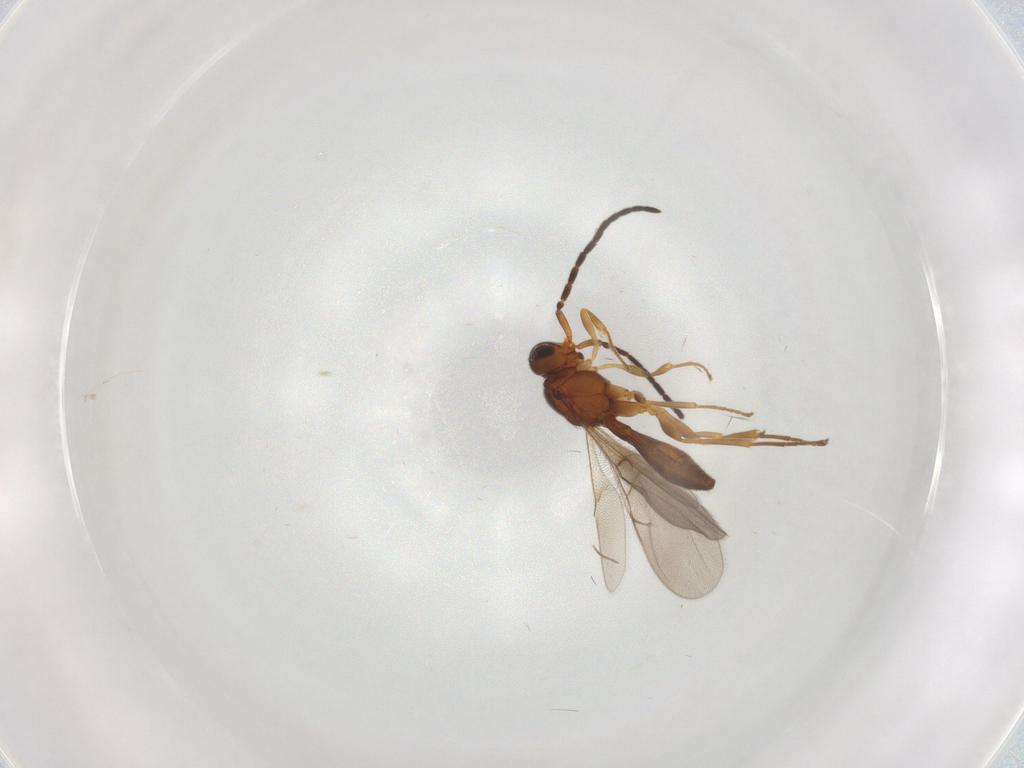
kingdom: Animalia
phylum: Arthropoda
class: Insecta
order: Hymenoptera
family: Scelionidae
